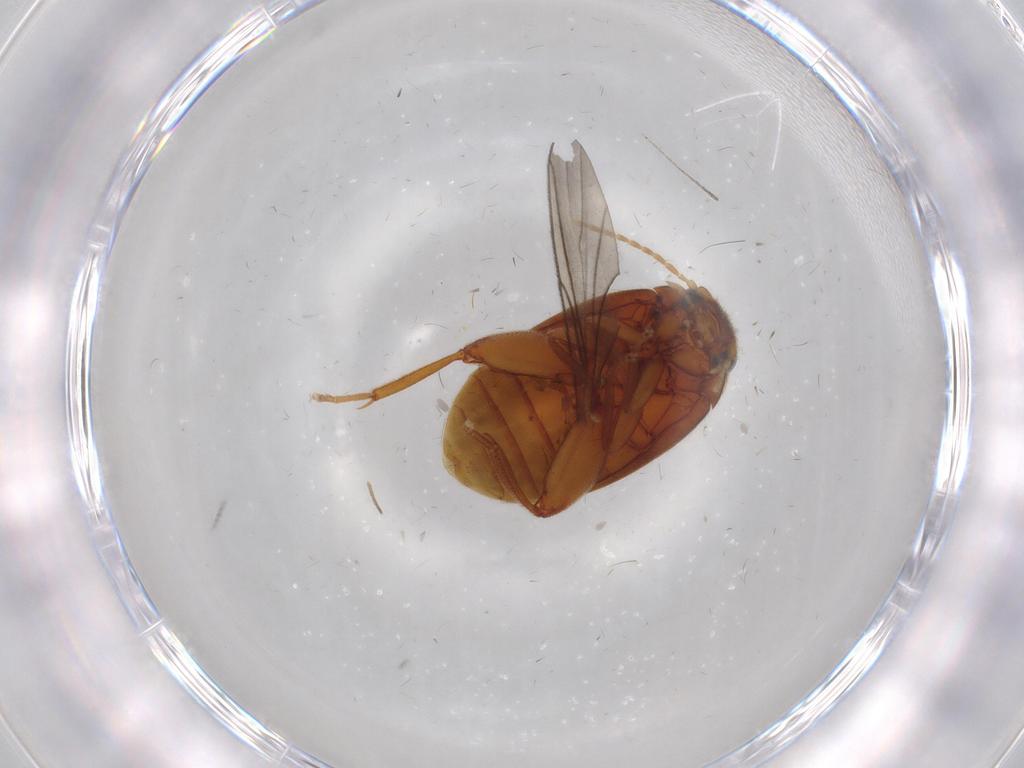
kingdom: Animalia
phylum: Arthropoda
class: Insecta
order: Coleoptera
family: Scirtidae
